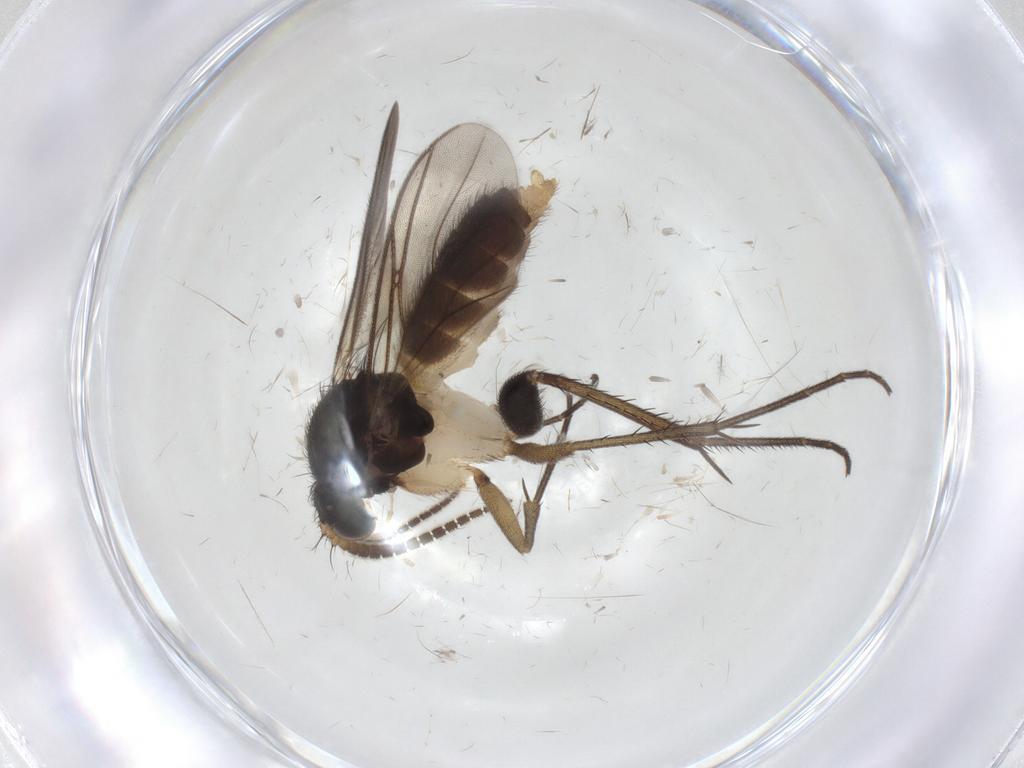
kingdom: Animalia
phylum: Arthropoda
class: Insecta
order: Diptera
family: Mycetophilidae
